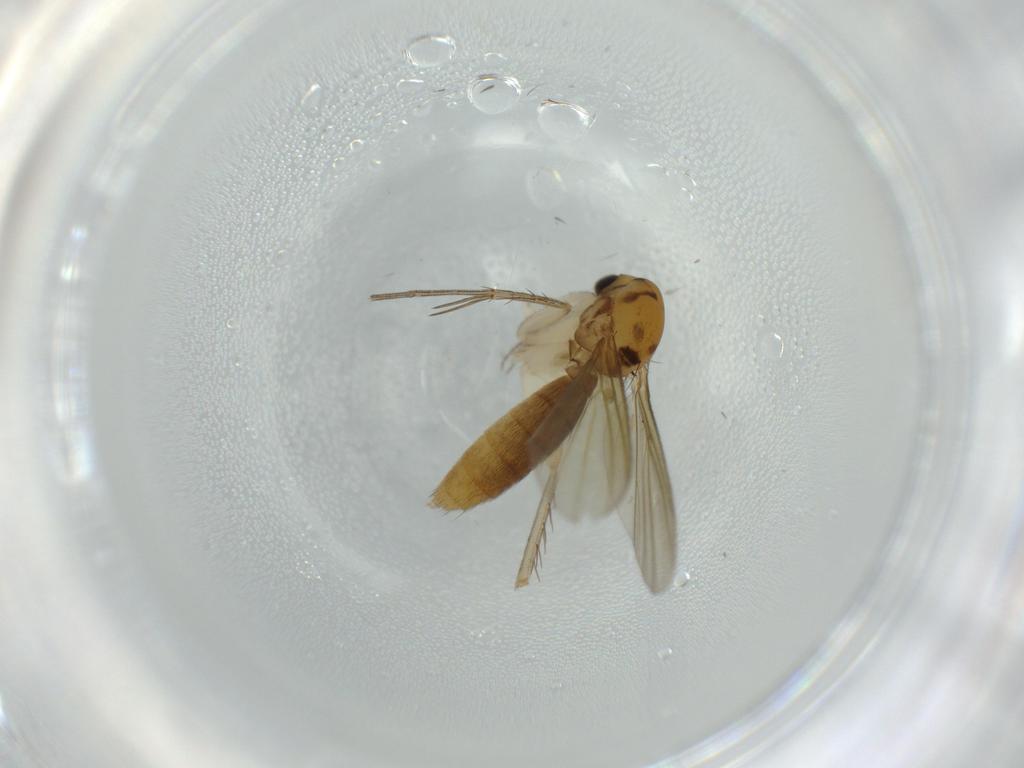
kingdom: Animalia
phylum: Arthropoda
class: Insecta
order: Diptera
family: Mycetophilidae
